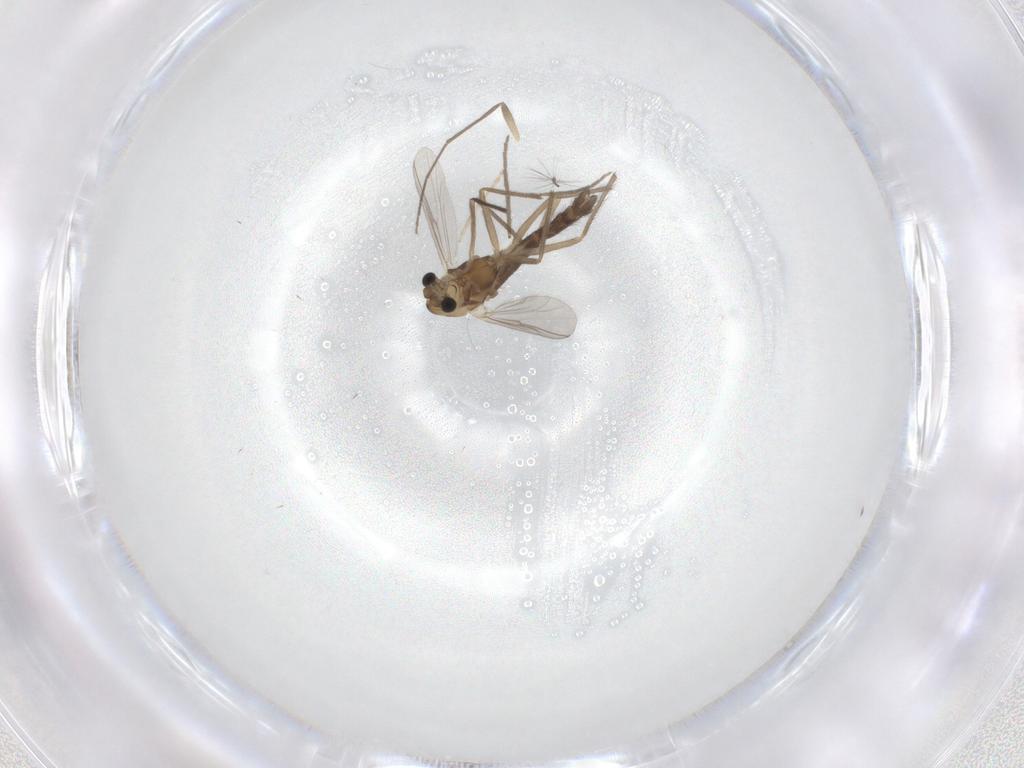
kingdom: Animalia
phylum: Arthropoda
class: Insecta
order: Diptera
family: Chironomidae
